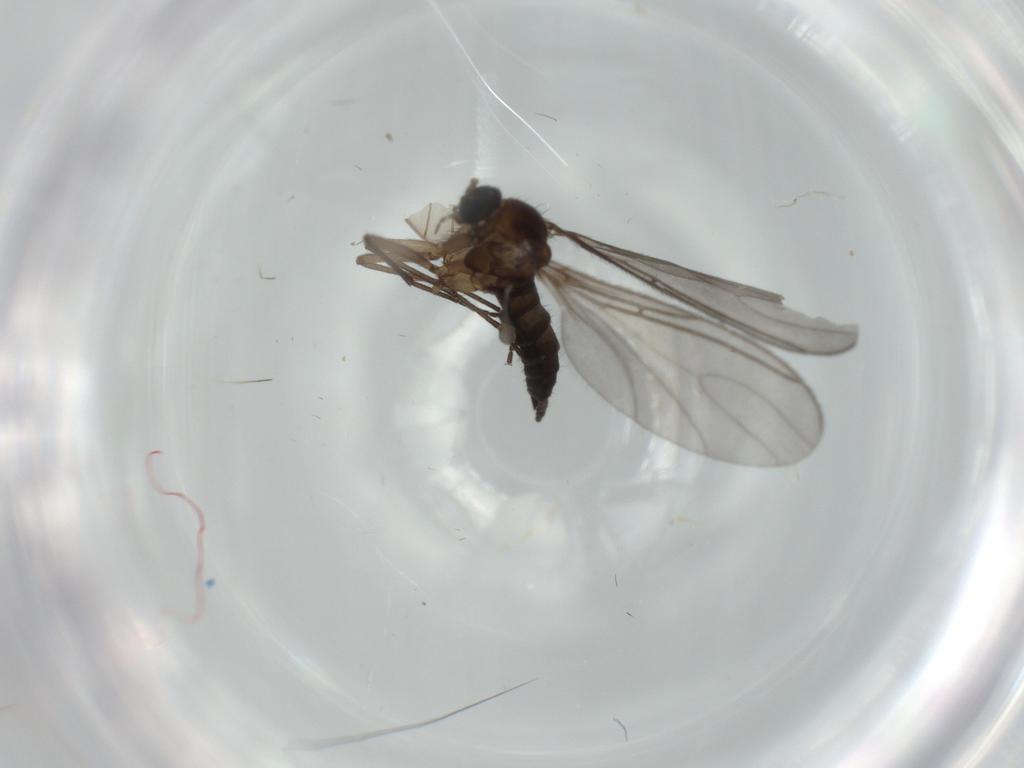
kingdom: Animalia
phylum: Arthropoda
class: Insecta
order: Diptera
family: Sciaridae
